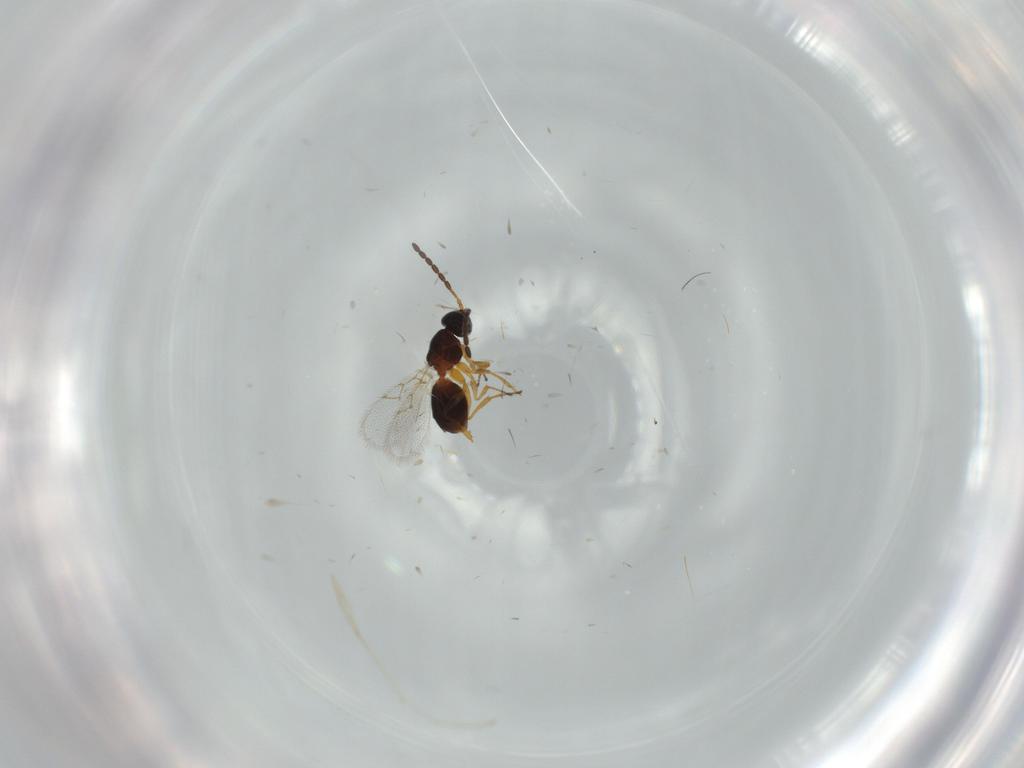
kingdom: Animalia
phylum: Arthropoda
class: Insecta
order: Hymenoptera
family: Figitidae
